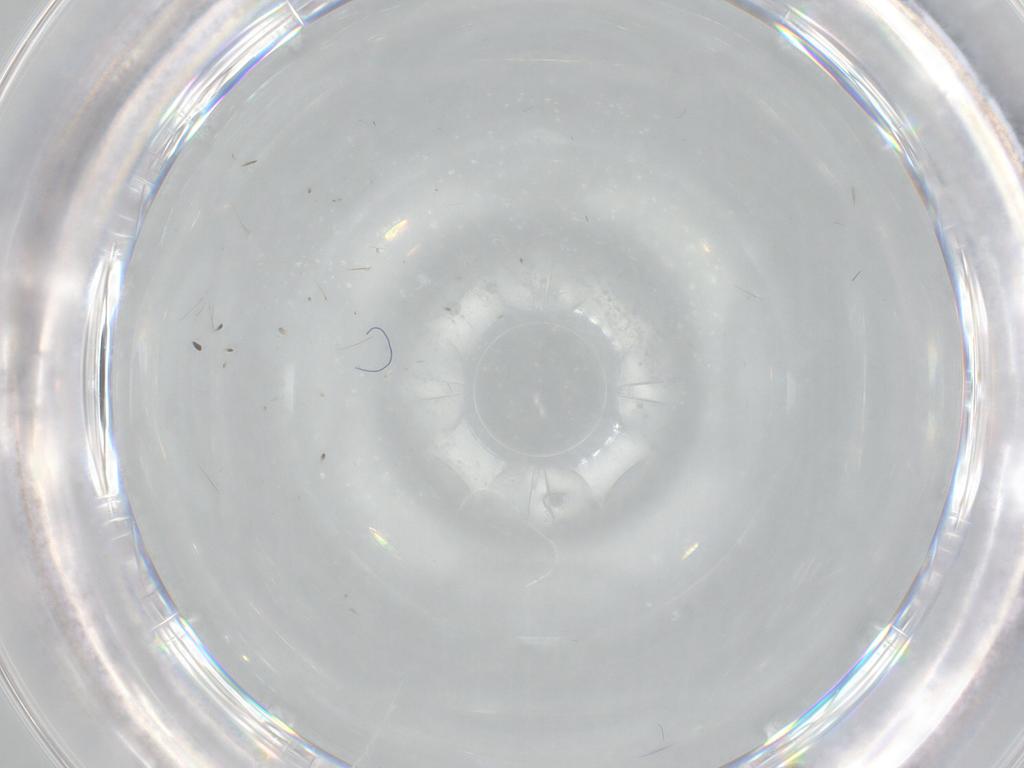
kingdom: Animalia
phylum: Arthropoda
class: Insecta
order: Diptera
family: Cecidomyiidae
